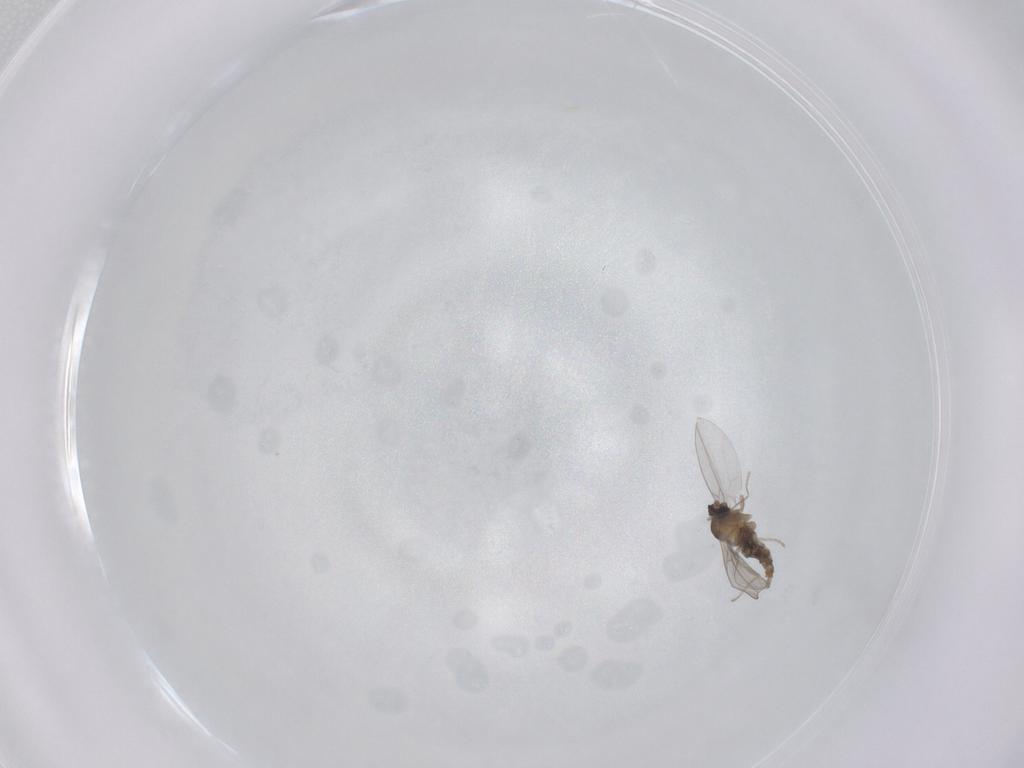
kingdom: Animalia
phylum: Arthropoda
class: Insecta
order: Diptera
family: Cecidomyiidae
